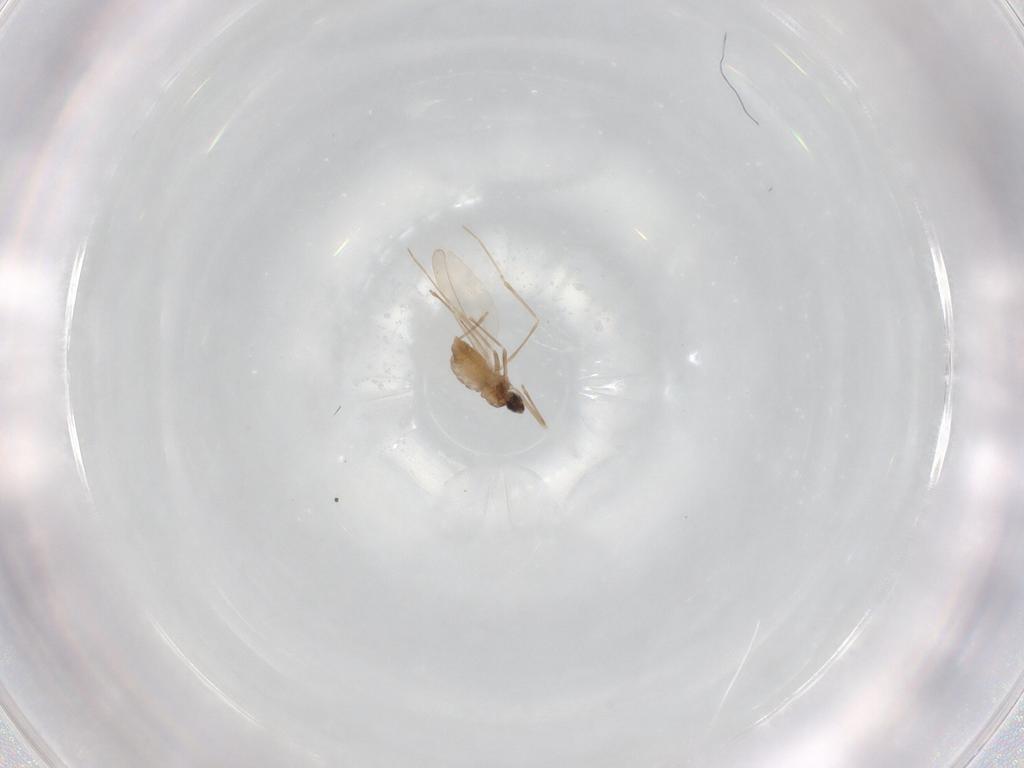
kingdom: Animalia
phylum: Arthropoda
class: Insecta
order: Diptera
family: Cecidomyiidae
